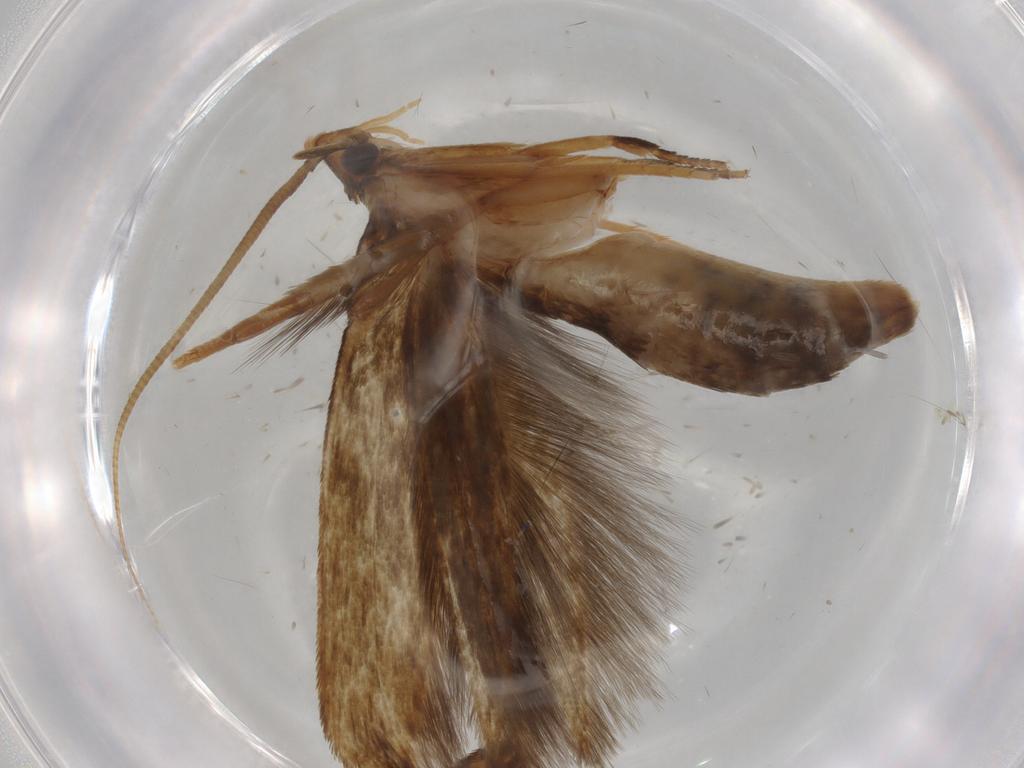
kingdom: Animalia
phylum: Arthropoda
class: Insecta
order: Lepidoptera
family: Tineidae
